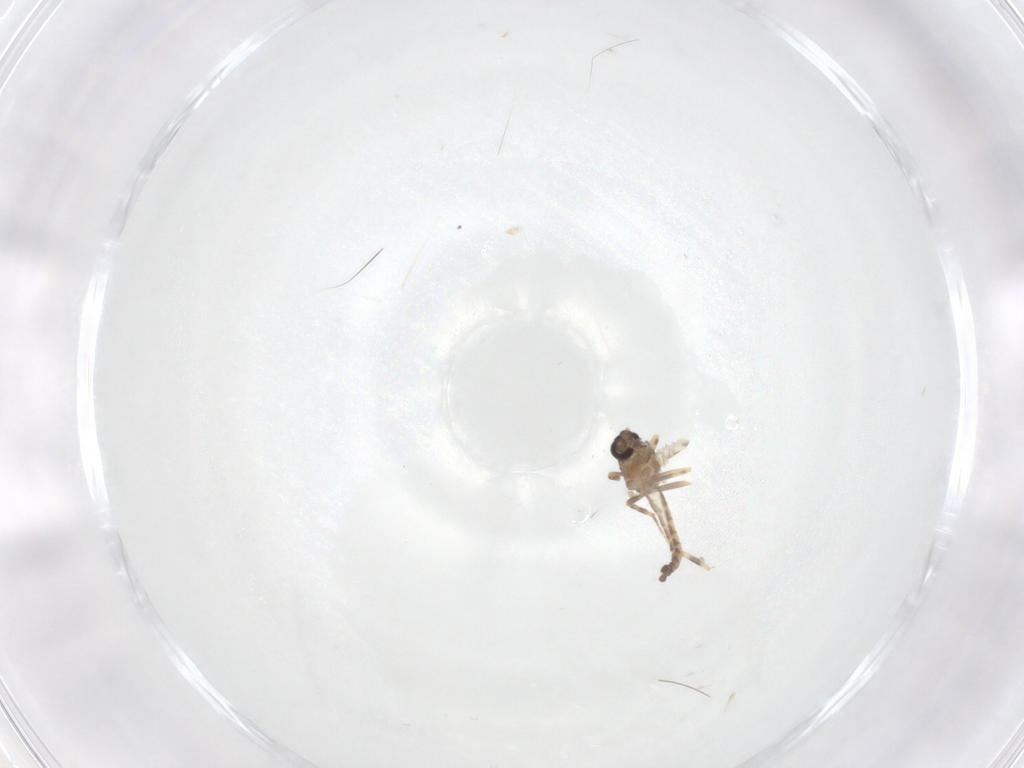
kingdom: Animalia
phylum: Arthropoda
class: Insecta
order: Diptera
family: Ceratopogonidae
